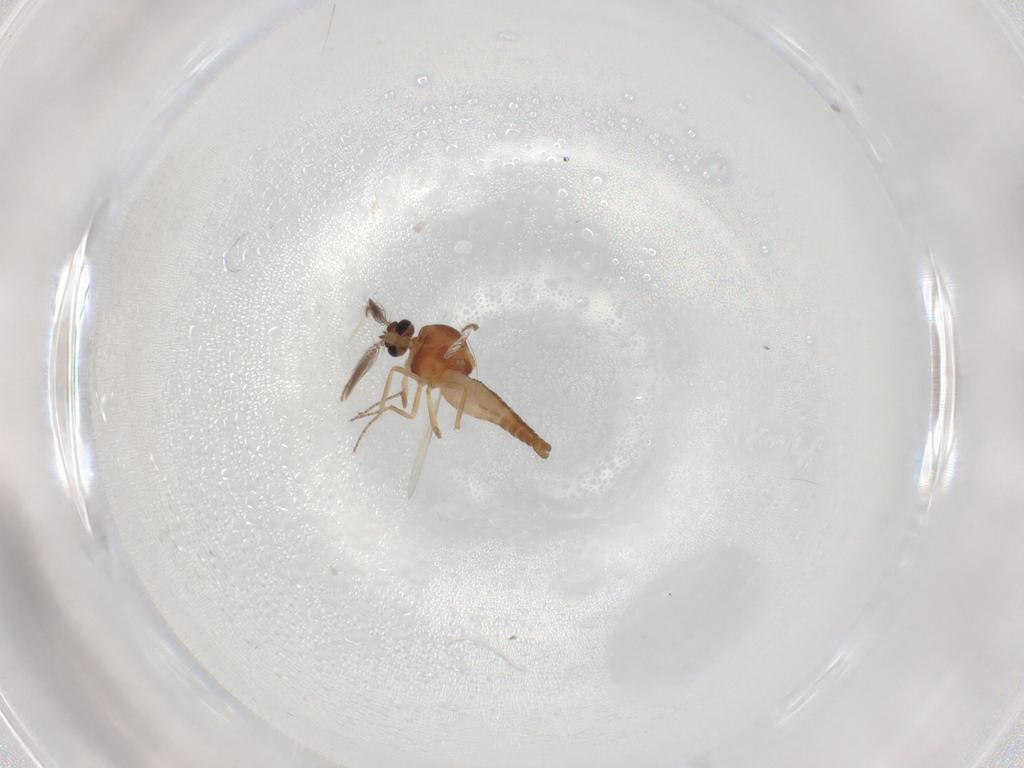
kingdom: Animalia
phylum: Arthropoda
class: Insecta
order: Diptera
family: Ceratopogonidae
